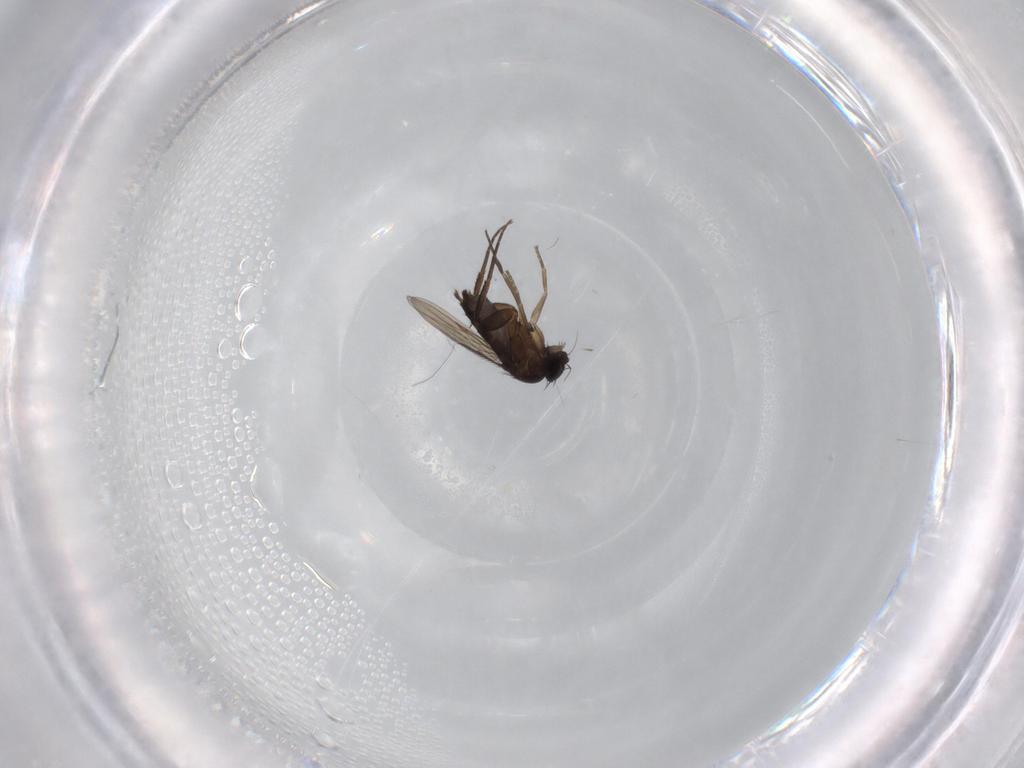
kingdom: Animalia
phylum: Arthropoda
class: Insecta
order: Diptera
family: Phoridae
